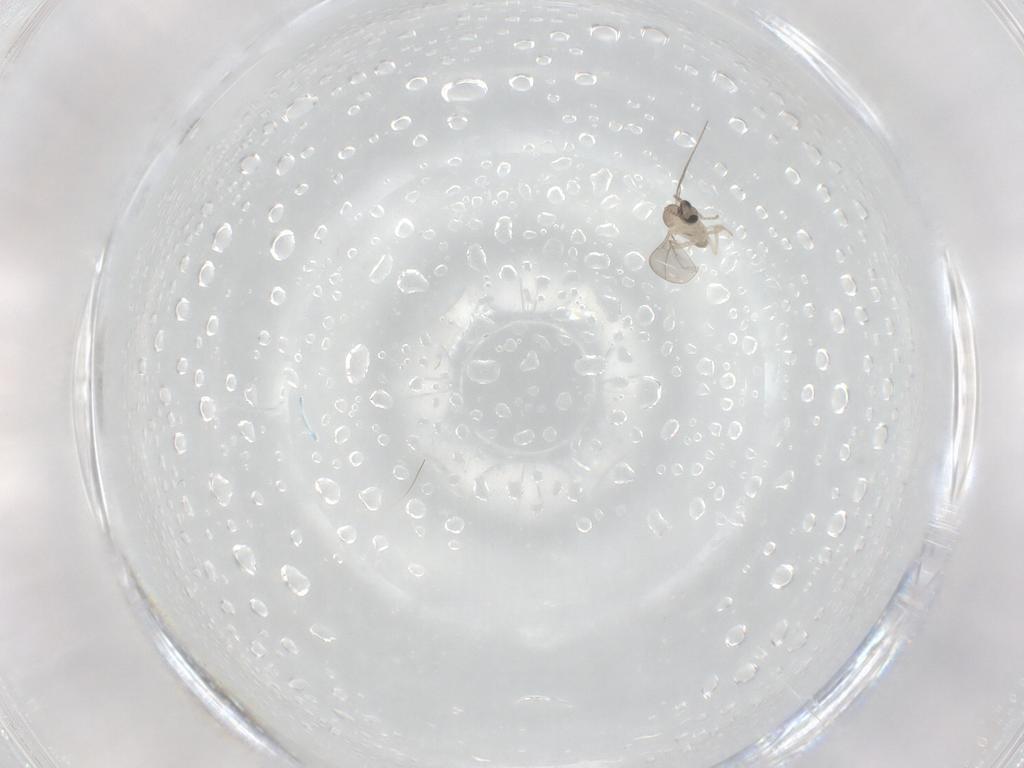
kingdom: Animalia
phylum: Arthropoda
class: Insecta
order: Diptera
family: Cecidomyiidae
